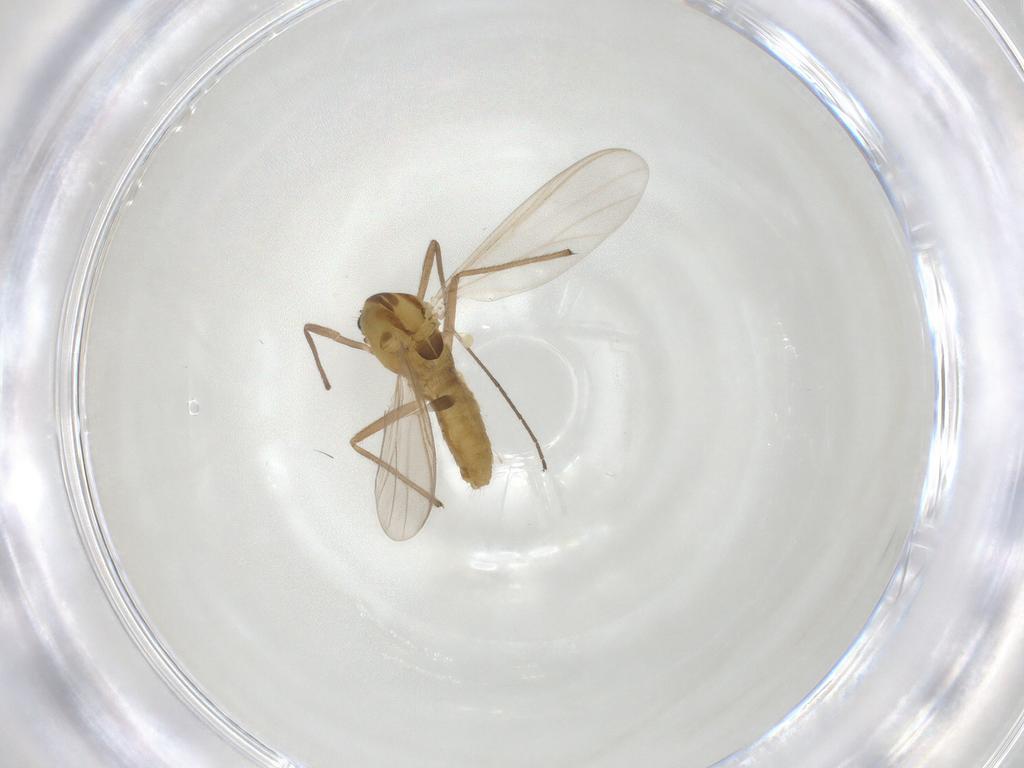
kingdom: Animalia
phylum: Arthropoda
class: Insecta
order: Diptera
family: Chironomidae
